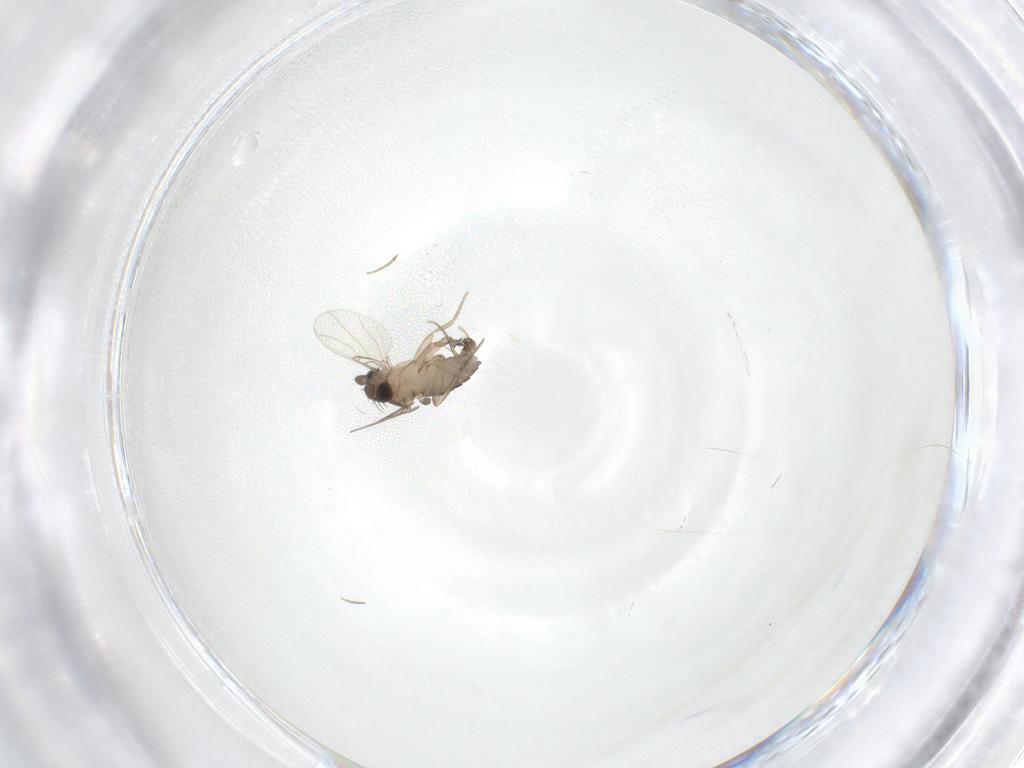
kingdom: Animalia
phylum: Arthropoda
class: Insecta
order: Diptera
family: Phoridae
